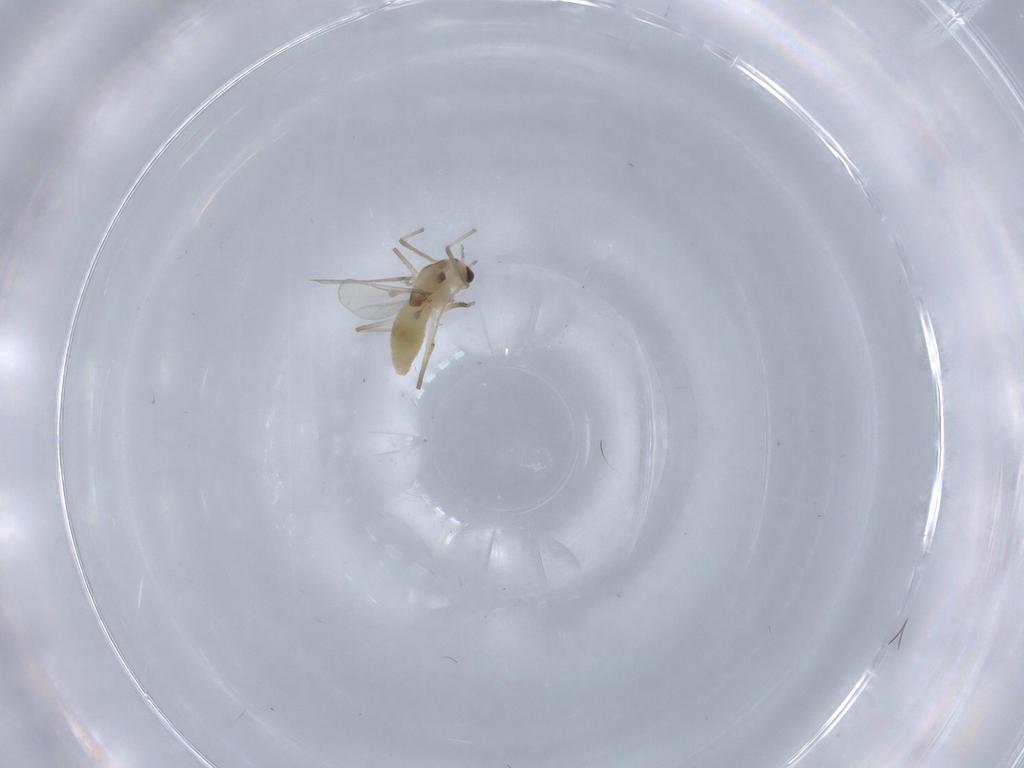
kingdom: Animalia
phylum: Arthropoda
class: Insecta
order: Diptera
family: Chironomidae
